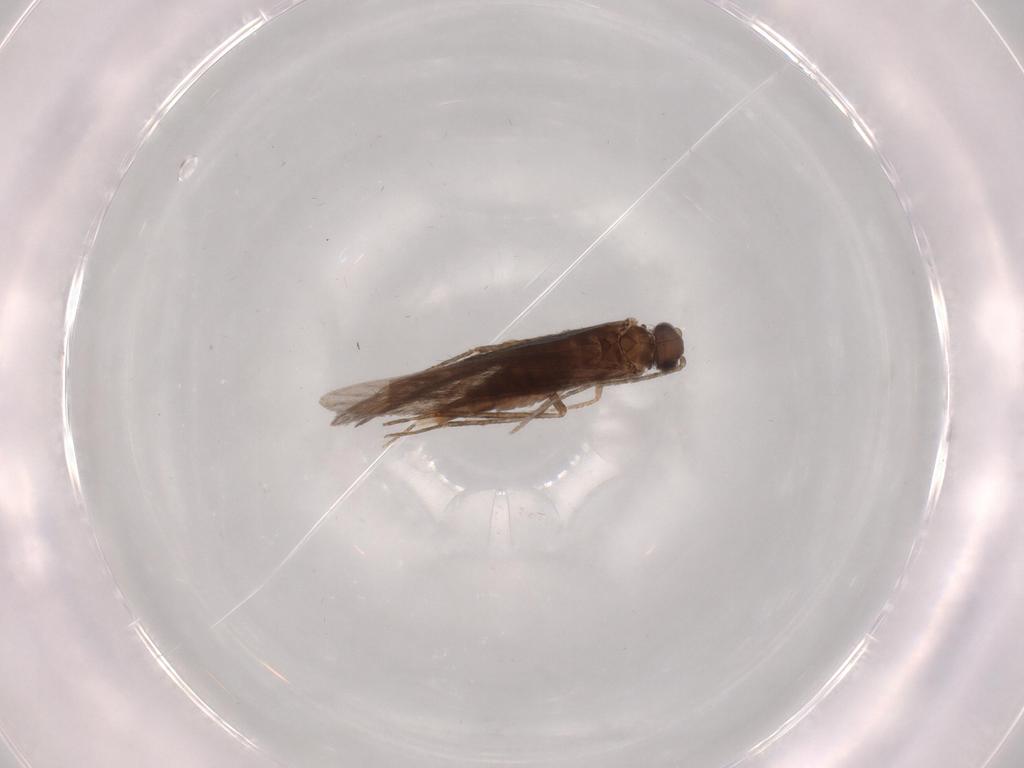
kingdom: Animalia
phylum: Arthropoda
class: Insecta
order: Trichoptera
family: Xiphocentronidae
